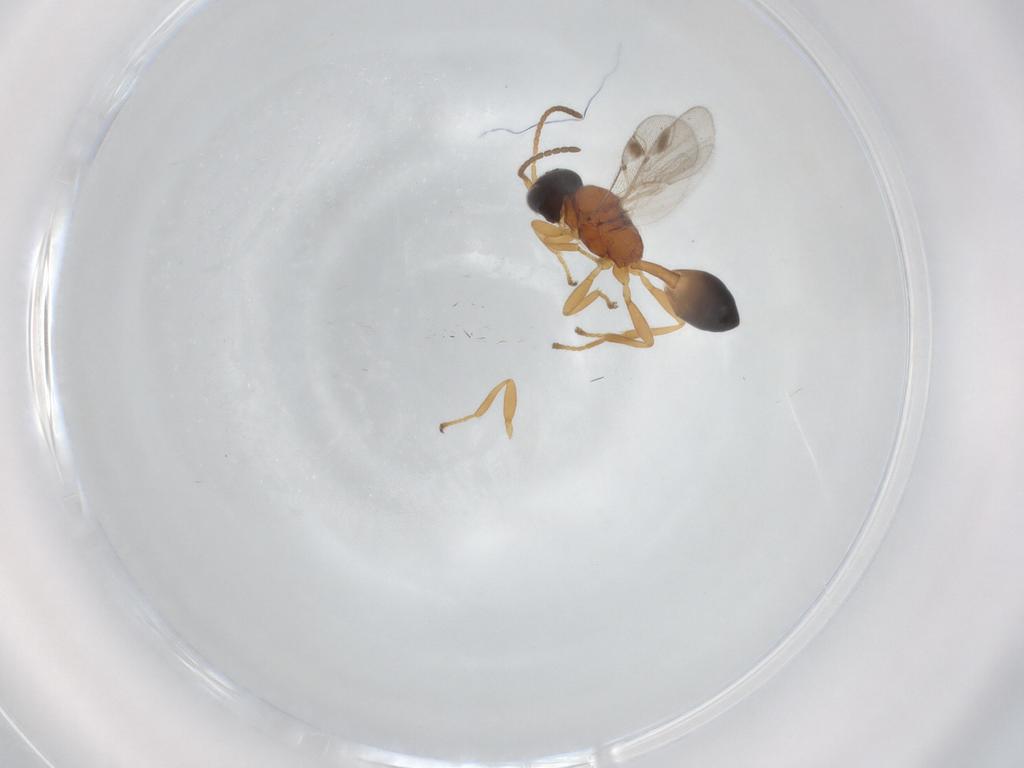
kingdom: Animalia
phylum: Arthropoda
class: Insecta
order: Hymenoptera
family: Braconidae
